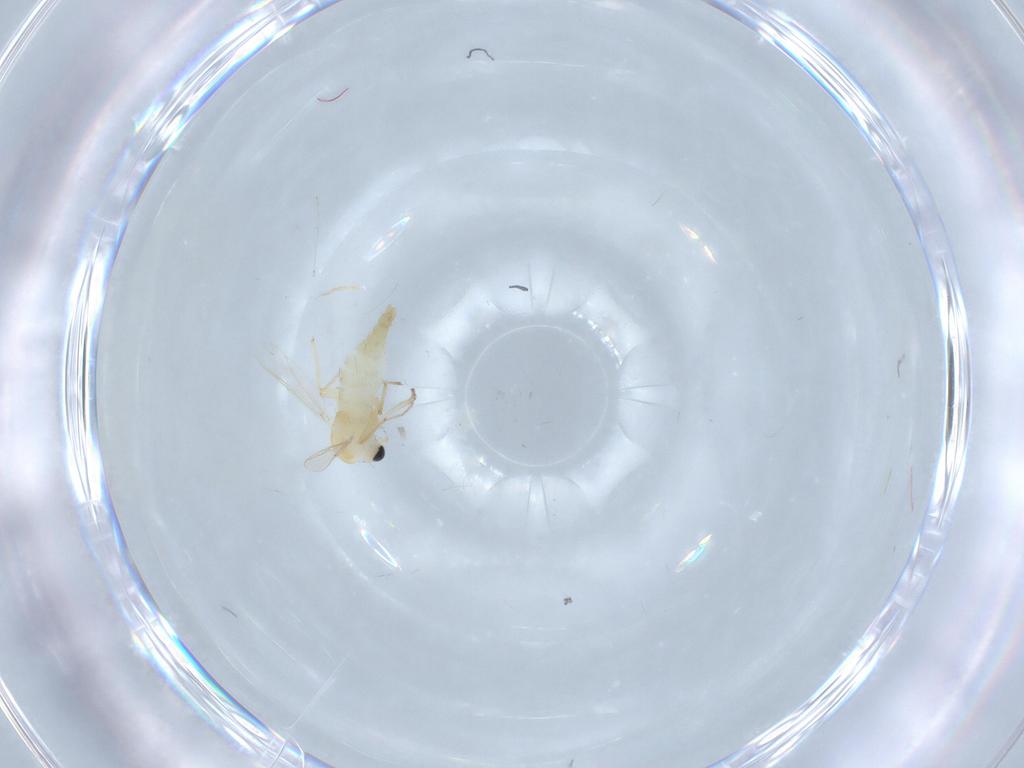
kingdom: Animalia
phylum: Arthropoda
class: Insecta
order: Diptera
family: Chironomidae
